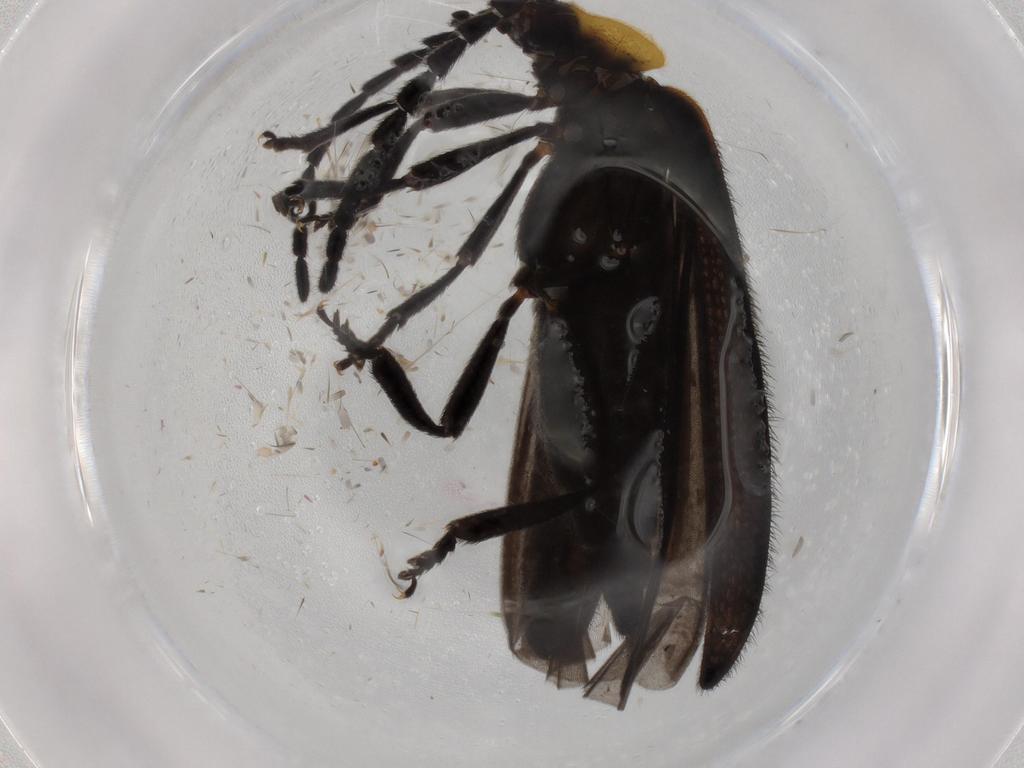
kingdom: Animalia
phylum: Arthropoda
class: Insecta
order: Coleoptera
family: Lycidae
